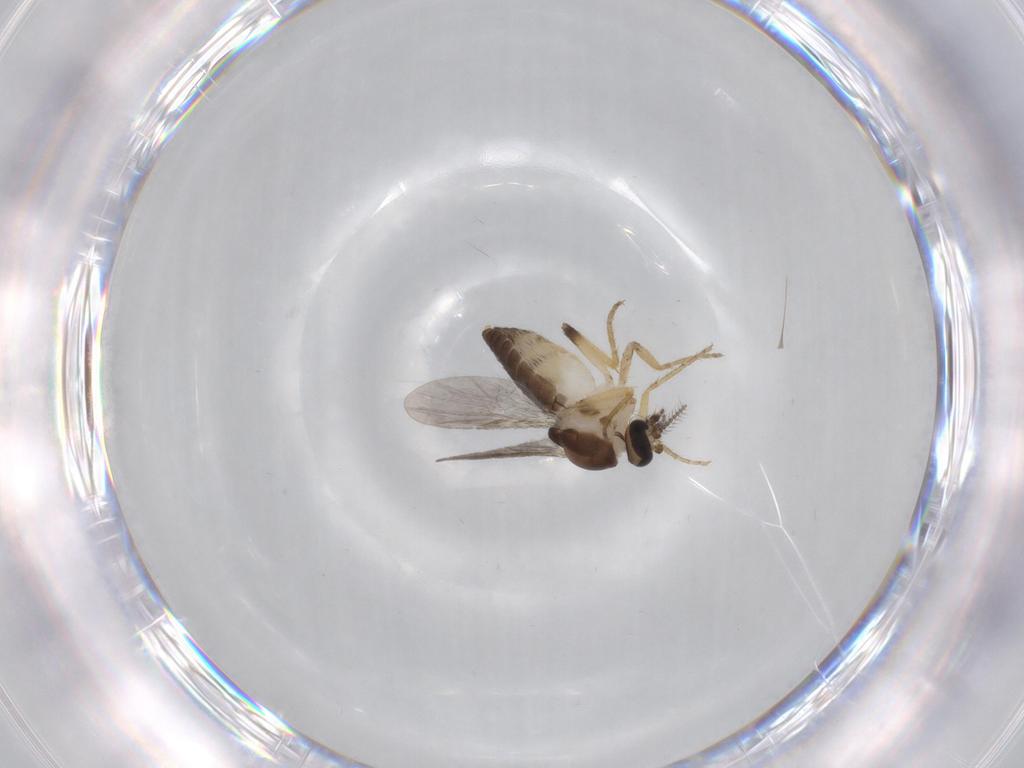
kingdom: Animalia
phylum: Arthropoda
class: Insecta
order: Diptera
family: Ceratopogonidae
